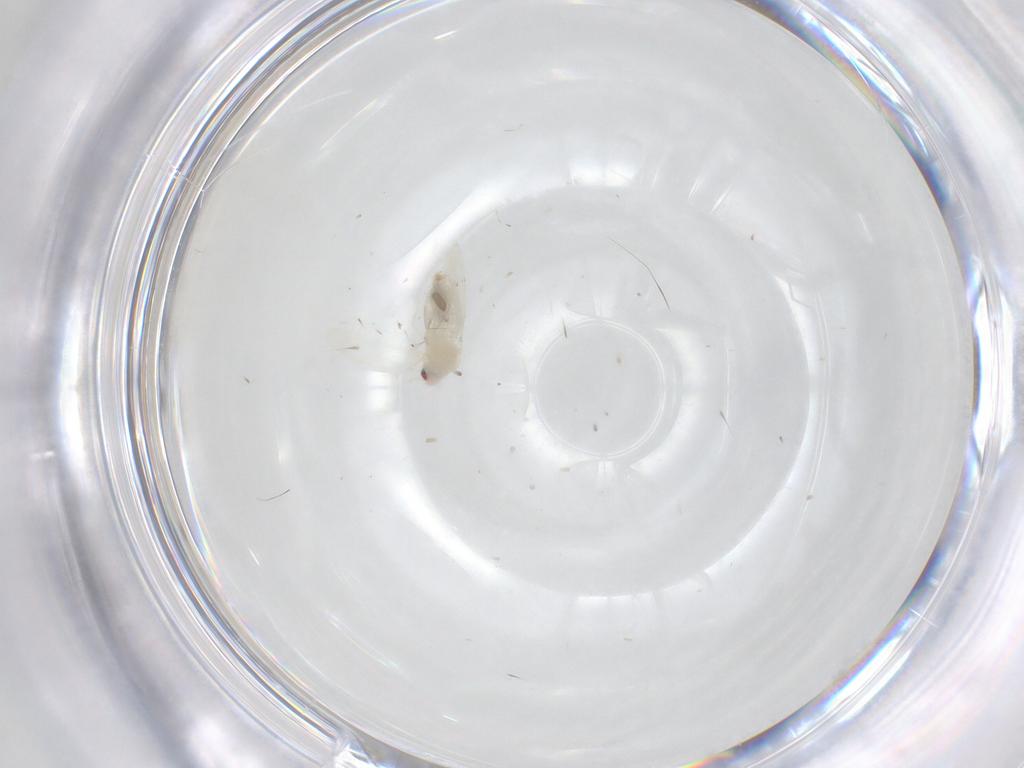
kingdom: Animalia
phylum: Arthropoda
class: Insecta
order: Hemiptera
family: Aleyrodidae
